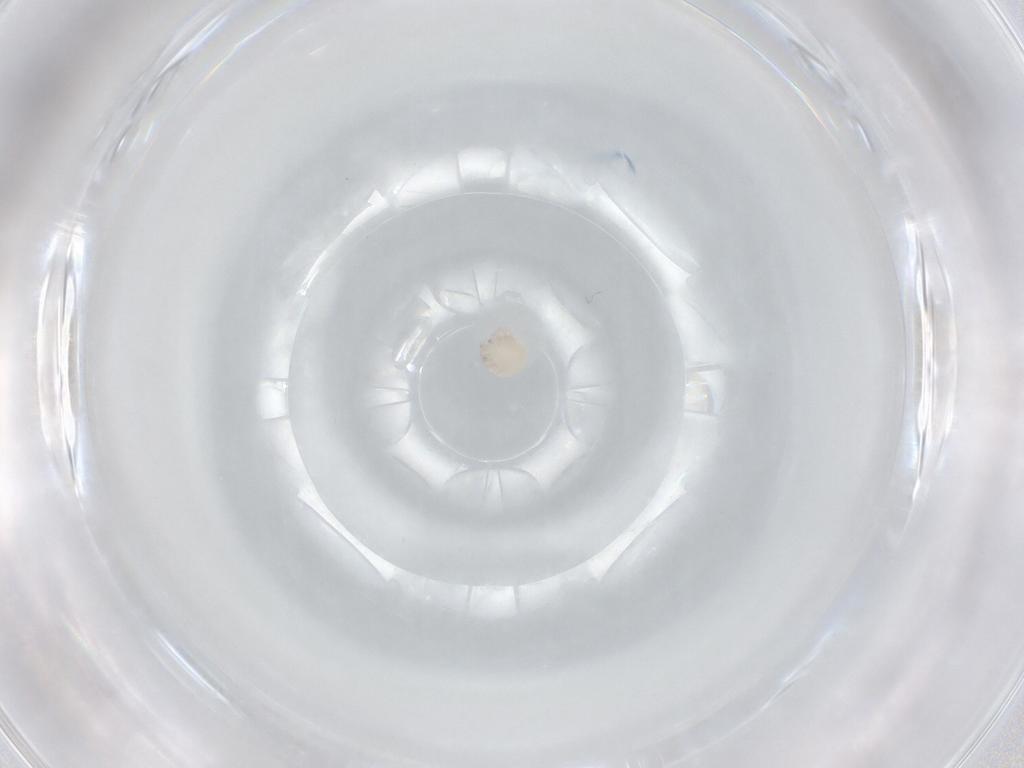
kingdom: Animalia
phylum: Arthropoda
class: Arachnida
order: Trombidiformes
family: Arrenuridae
